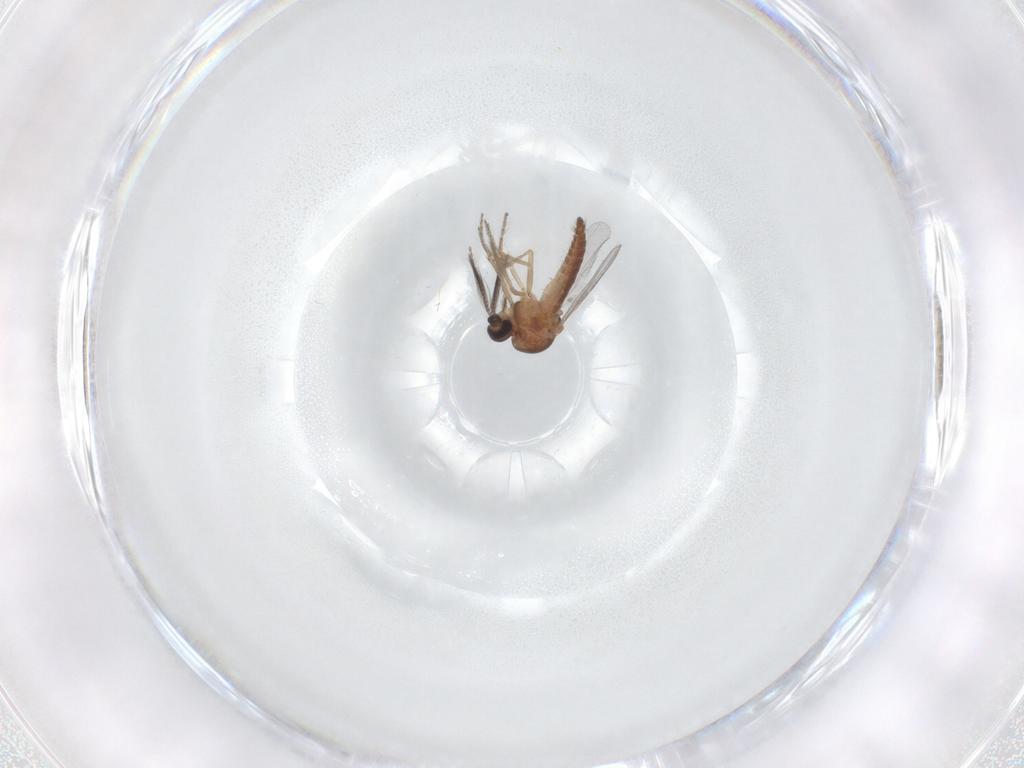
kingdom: Animalia
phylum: Arthropoda
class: Insecta
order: Diptera
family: Ceratopogonidae
